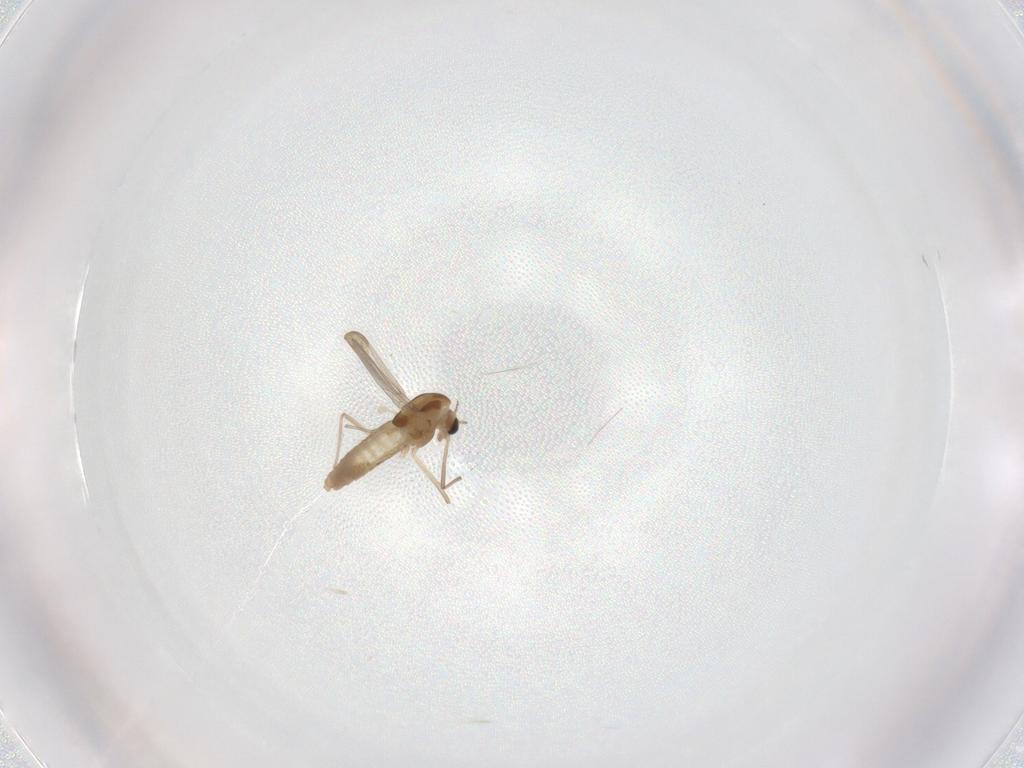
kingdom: Animalia
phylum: Arthropoda
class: Insecta
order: Diptera
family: Chironomidae
